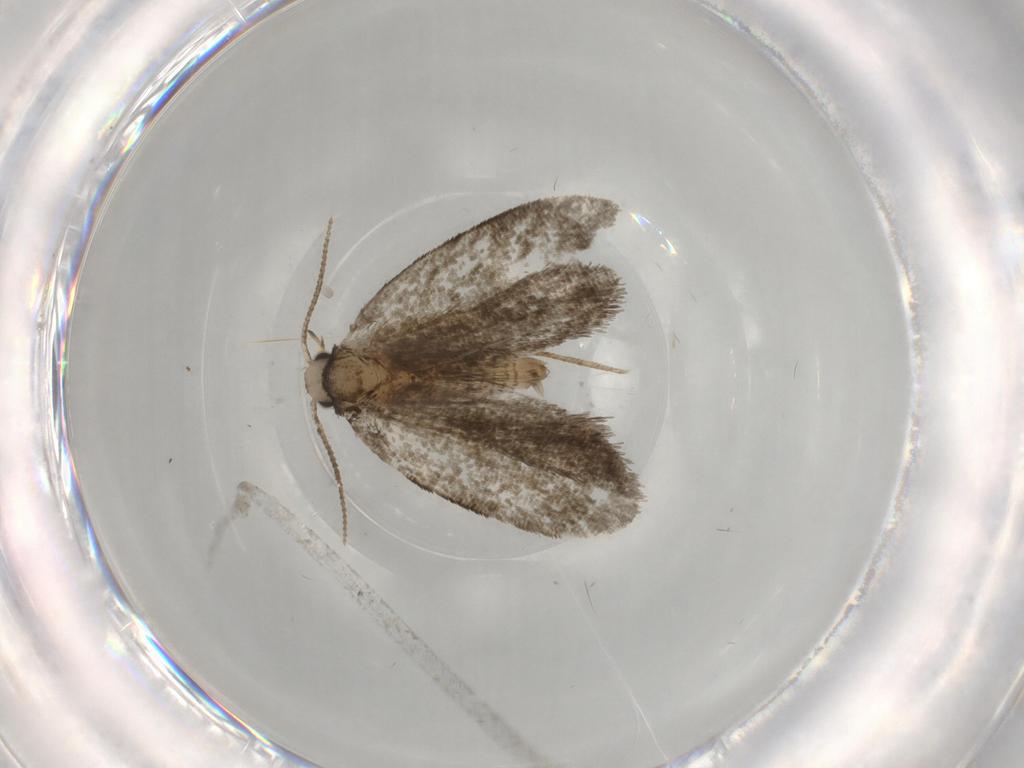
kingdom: Animalia
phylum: Arthropoda
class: Insecta
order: Lepidoptera
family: Psychidae
